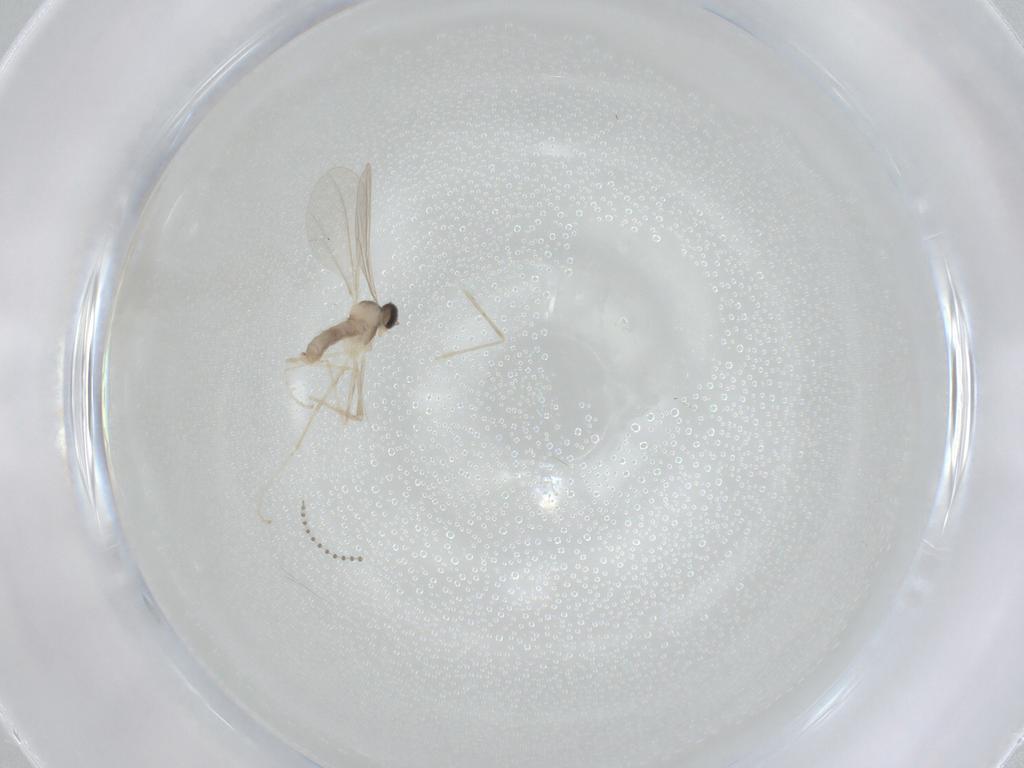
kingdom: Animalia
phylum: Arthropoda
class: Insecta
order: Diptera
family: Cecidomyiidae
